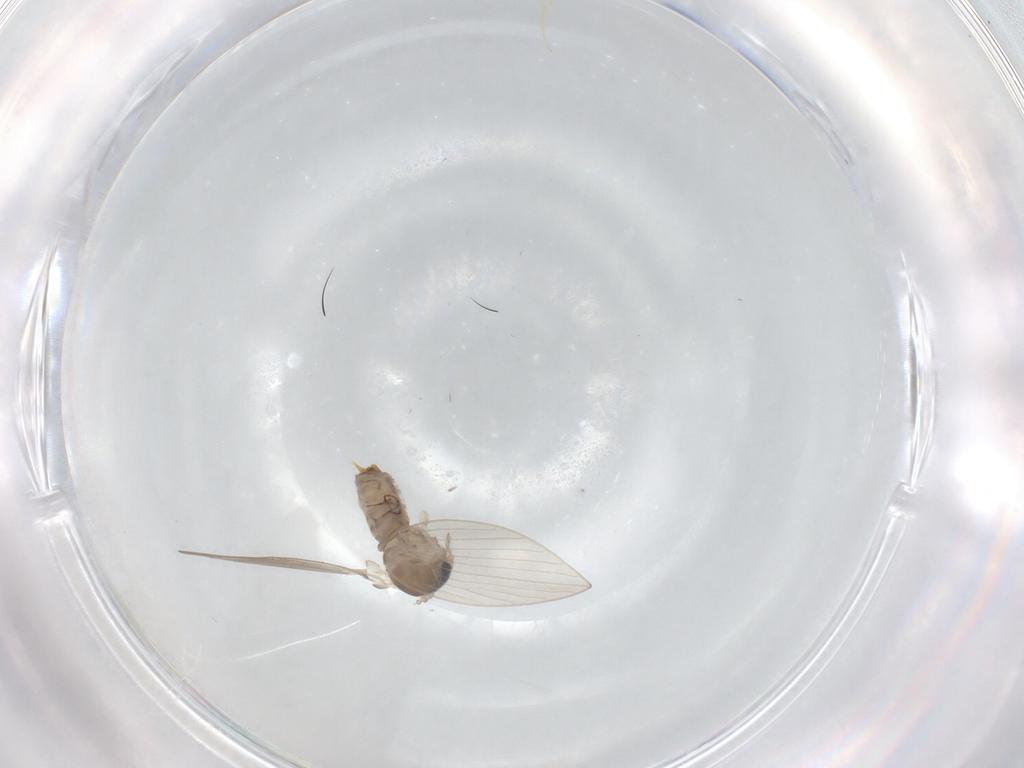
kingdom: Animalia
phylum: Arthropoda
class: Insecta
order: Diptera
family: Psychodidae
